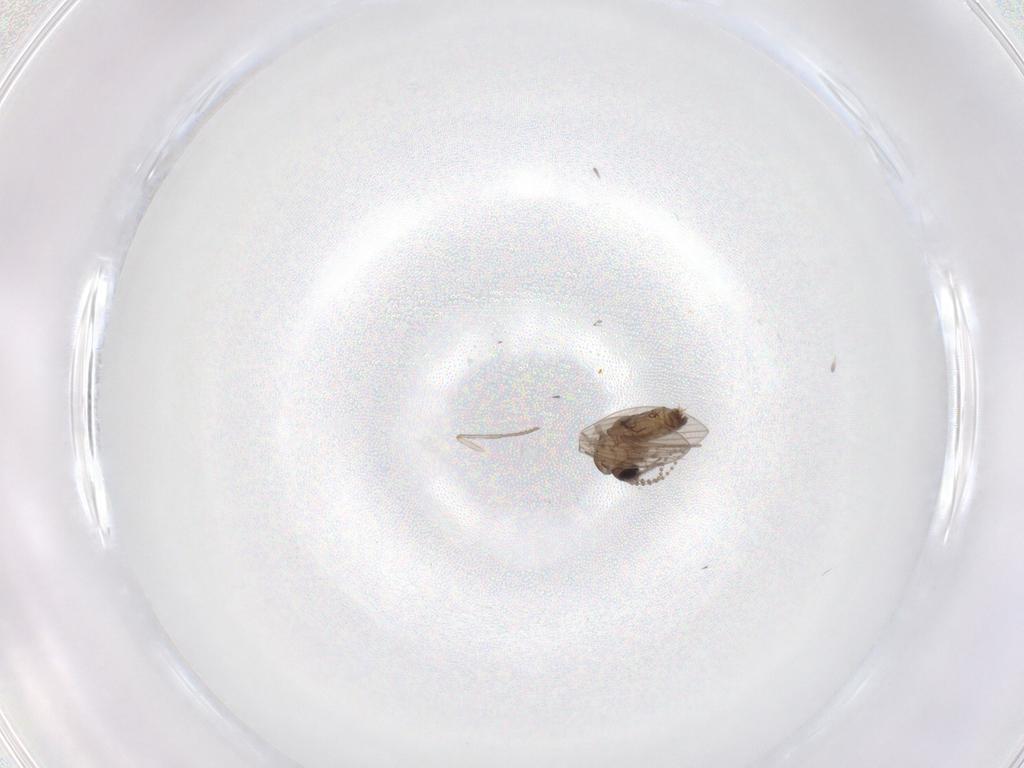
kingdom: Animalia
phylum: Arthropoda
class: Insecta
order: Diptera
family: Psychodidae
